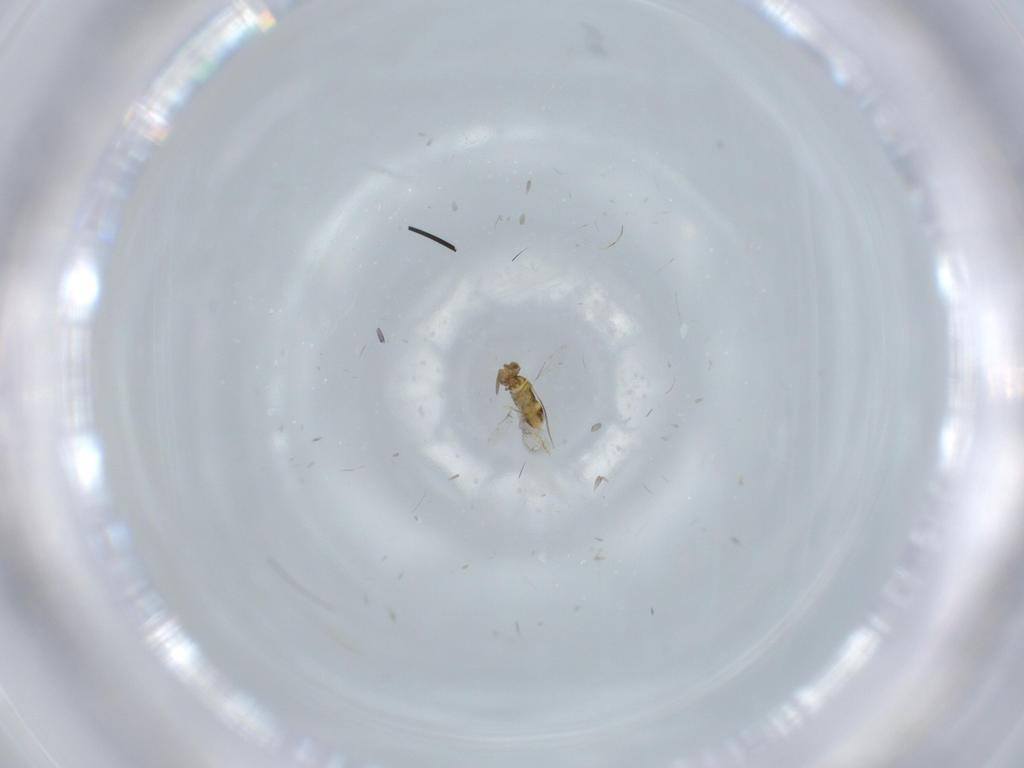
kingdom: Animalia
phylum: Arthropoda
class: Insecta
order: Hymenoptera
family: Aphelinidae
